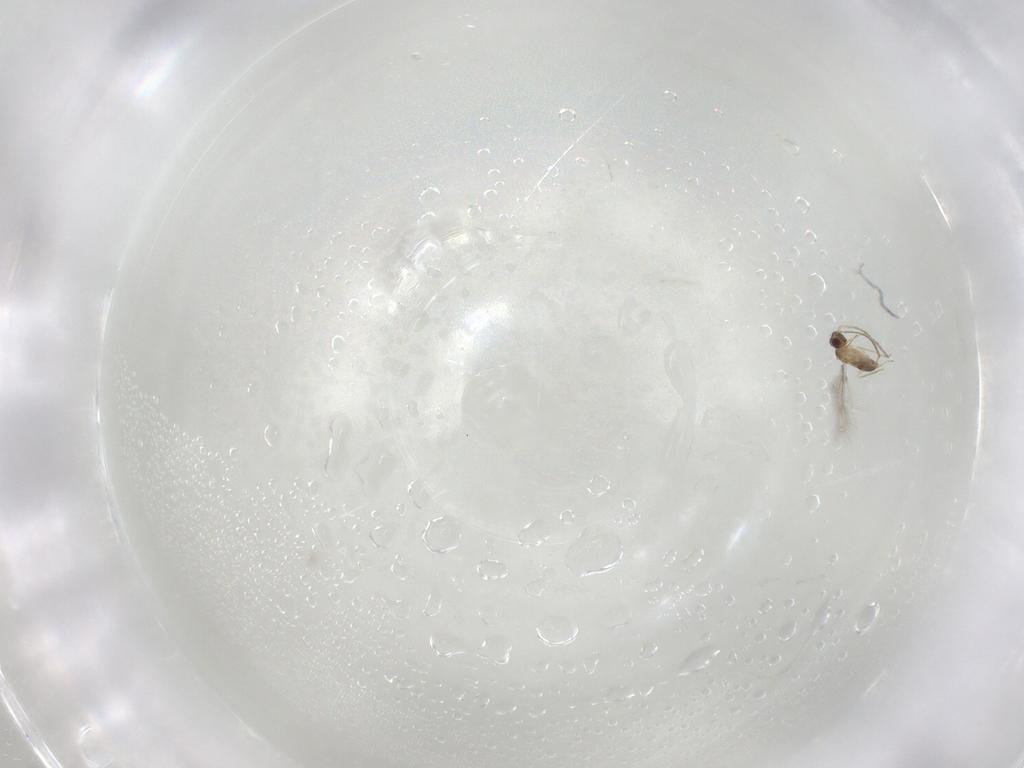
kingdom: Animalia
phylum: Arthropoda
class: Insecta
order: Hymenoptera
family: Mymaridae
